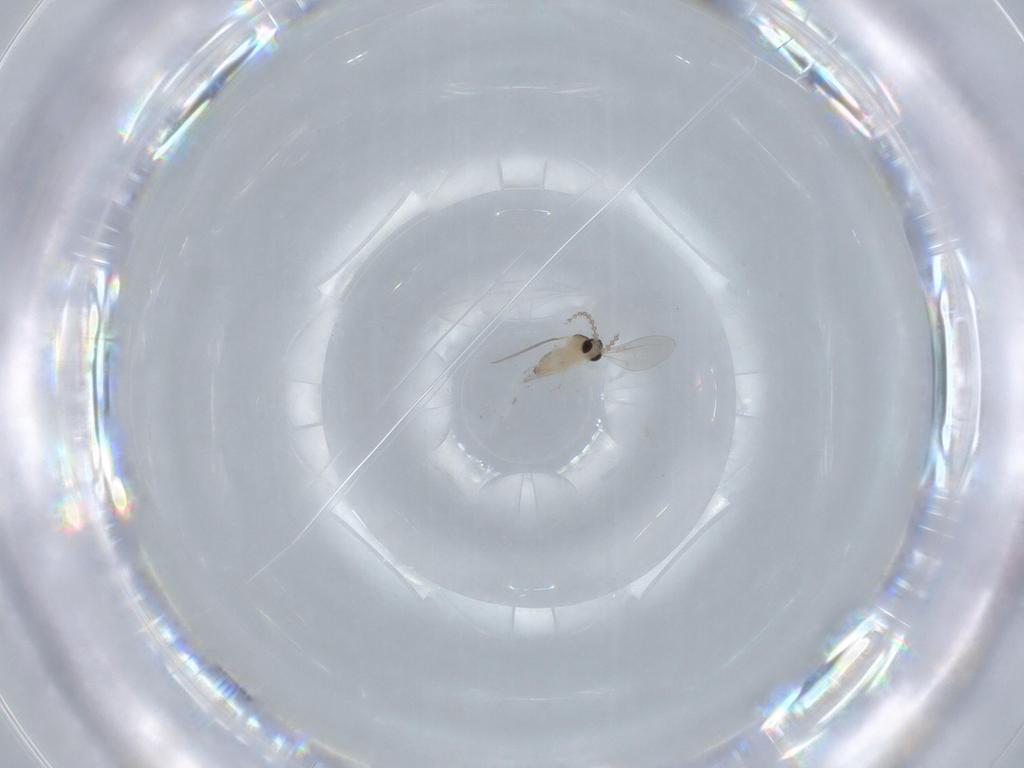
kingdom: Animalia
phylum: Arthropoda
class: Insecta
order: Diptera
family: Cecidomyiidae
